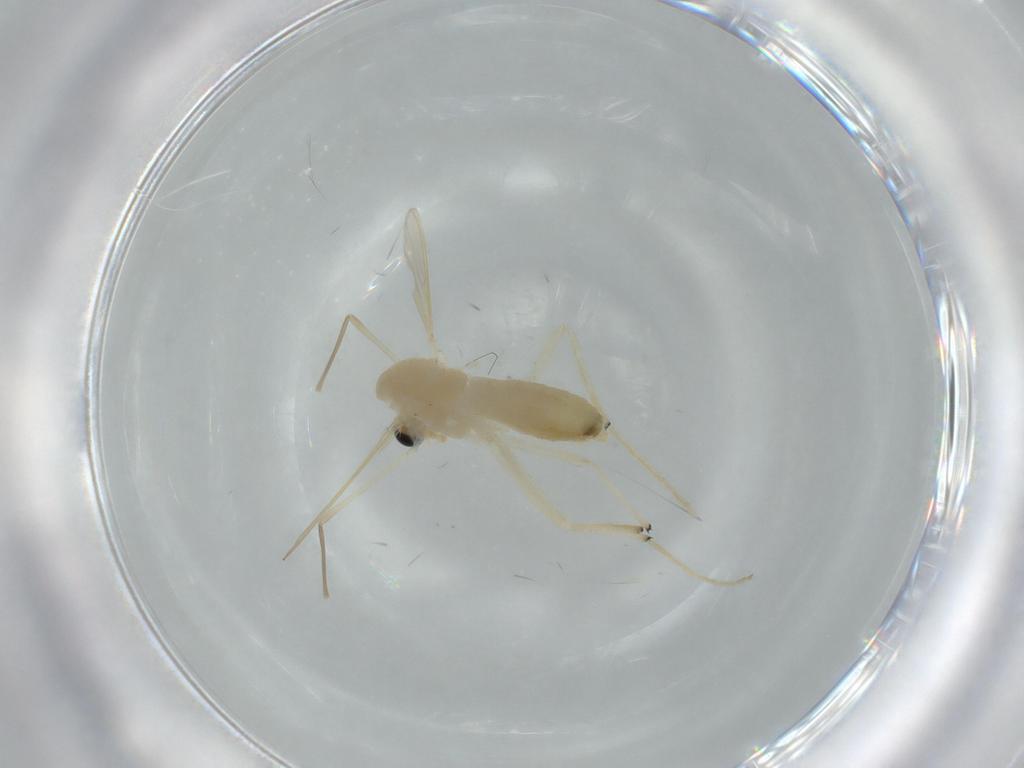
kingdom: Animalia
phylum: Arthropoda
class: Insecta
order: Diptera
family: Chironomidae
